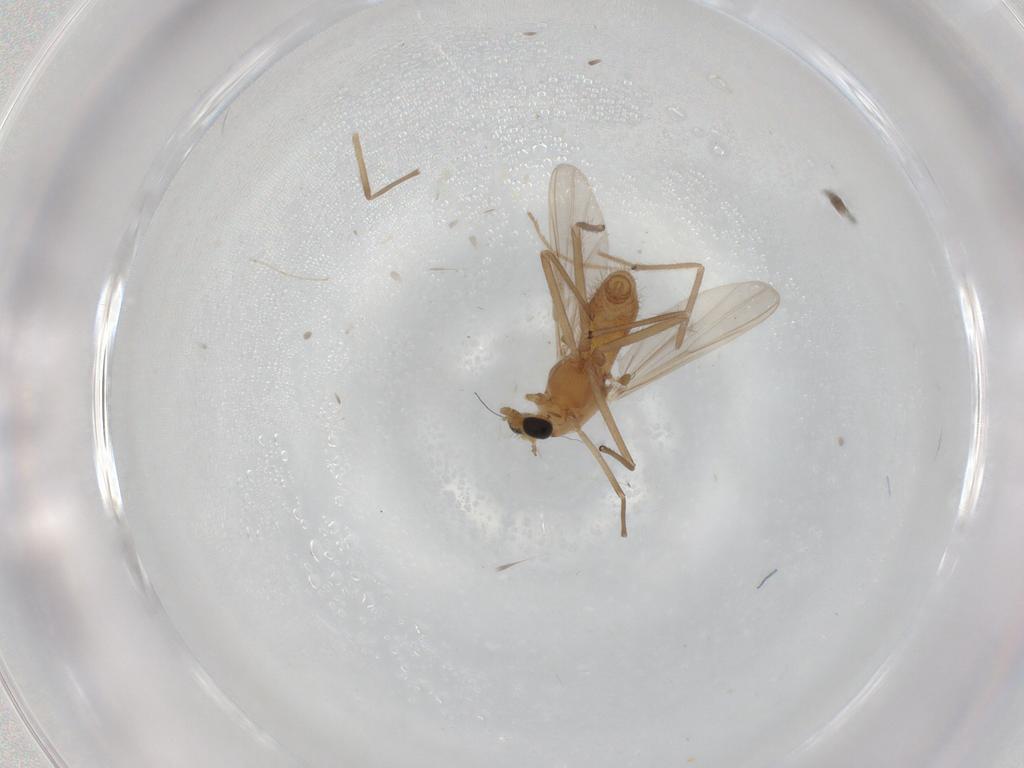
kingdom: Animalia
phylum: Arthropoda
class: Insecta
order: Diptera
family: Chironomidae
